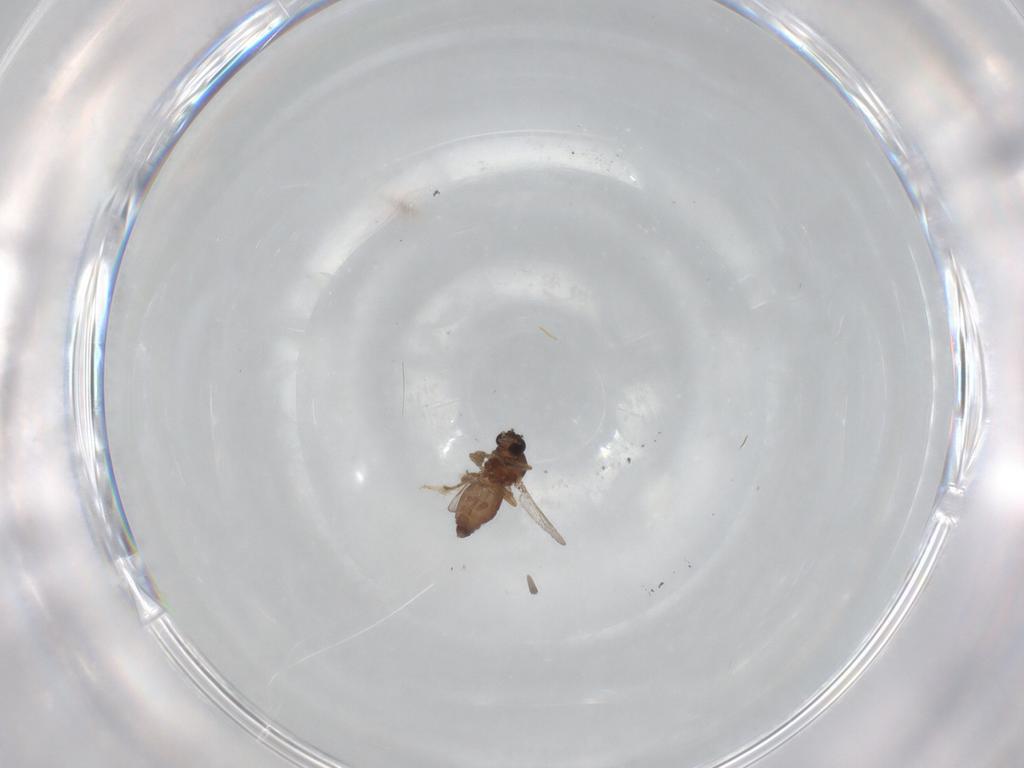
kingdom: Animalia
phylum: Arthropoda
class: Insecta
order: Diptera
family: Ceratopogonidae
